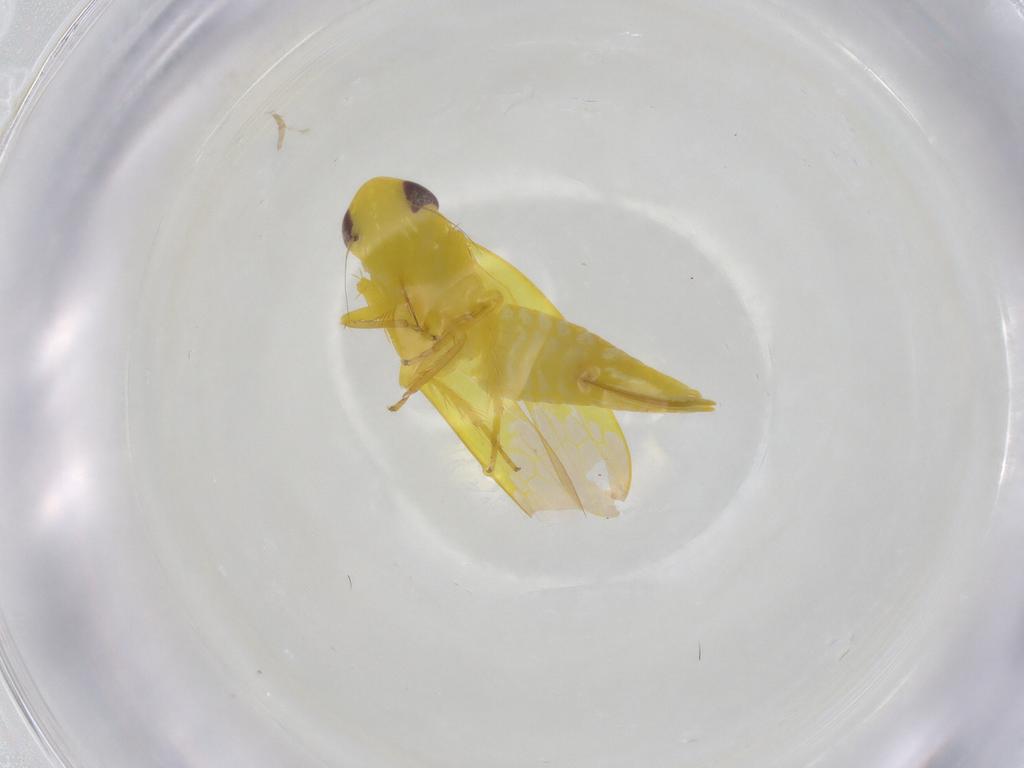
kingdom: Animalia
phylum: Arthropoda
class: Insecta
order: Hemiptera
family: Cicadellidae
